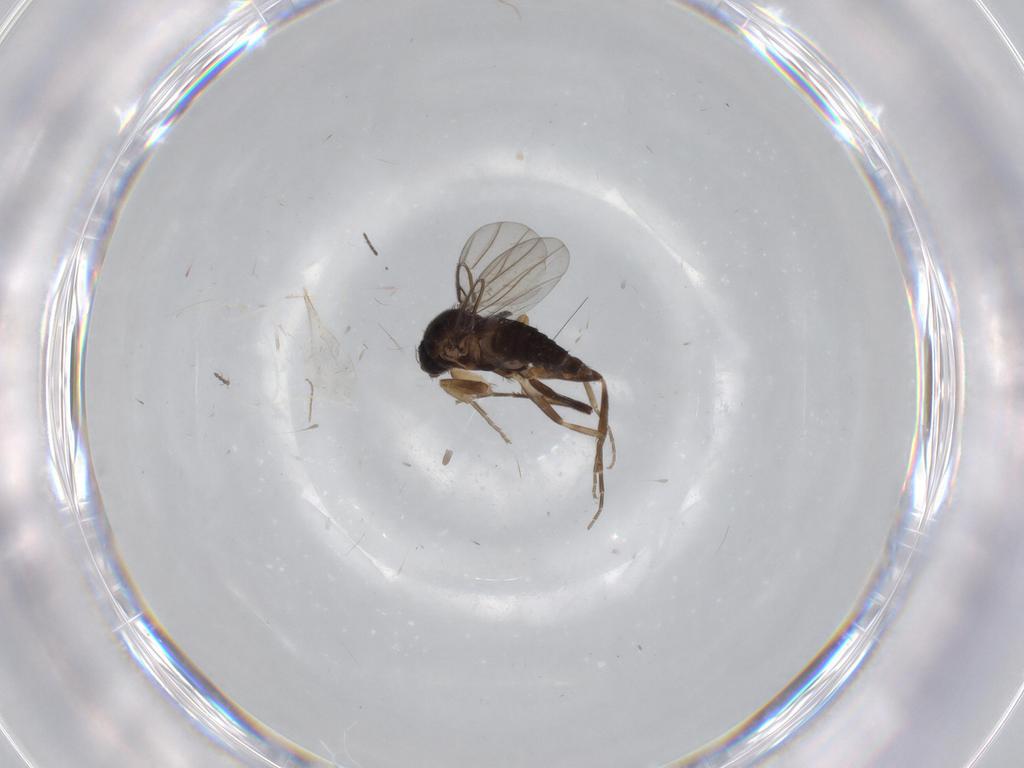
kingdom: Animalia
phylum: Arthropoda
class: Insecta
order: Diptera
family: Phoridae
